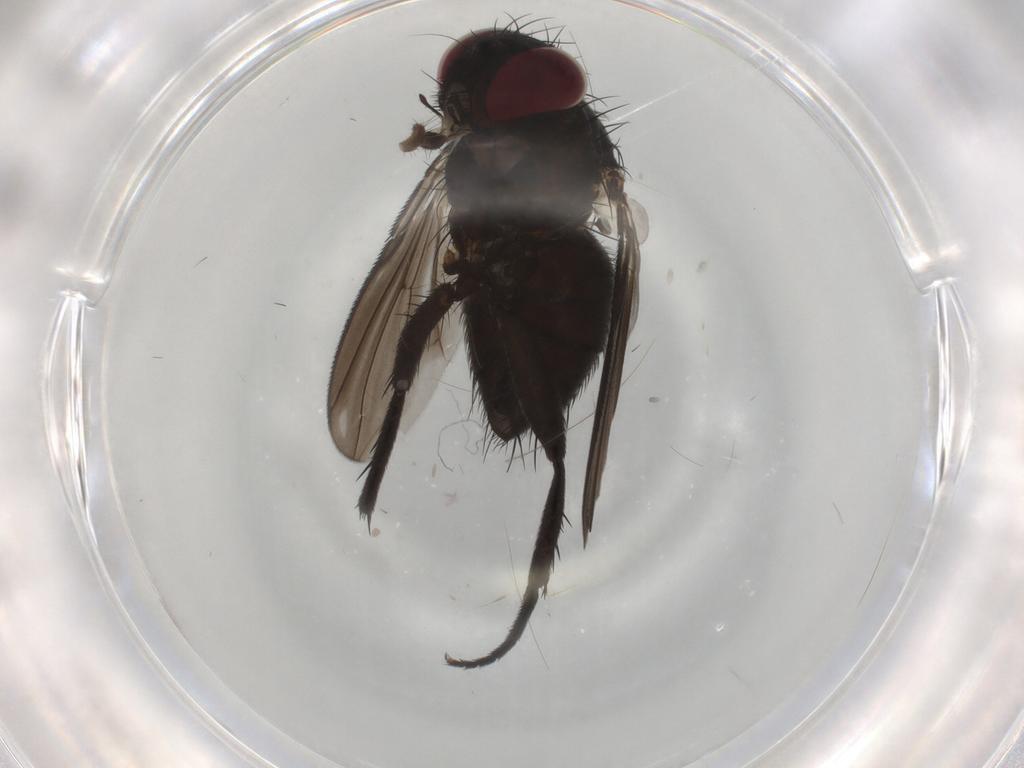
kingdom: Animalia
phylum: Arthropoda
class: Insecta
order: Diptera
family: Calliphoridae
